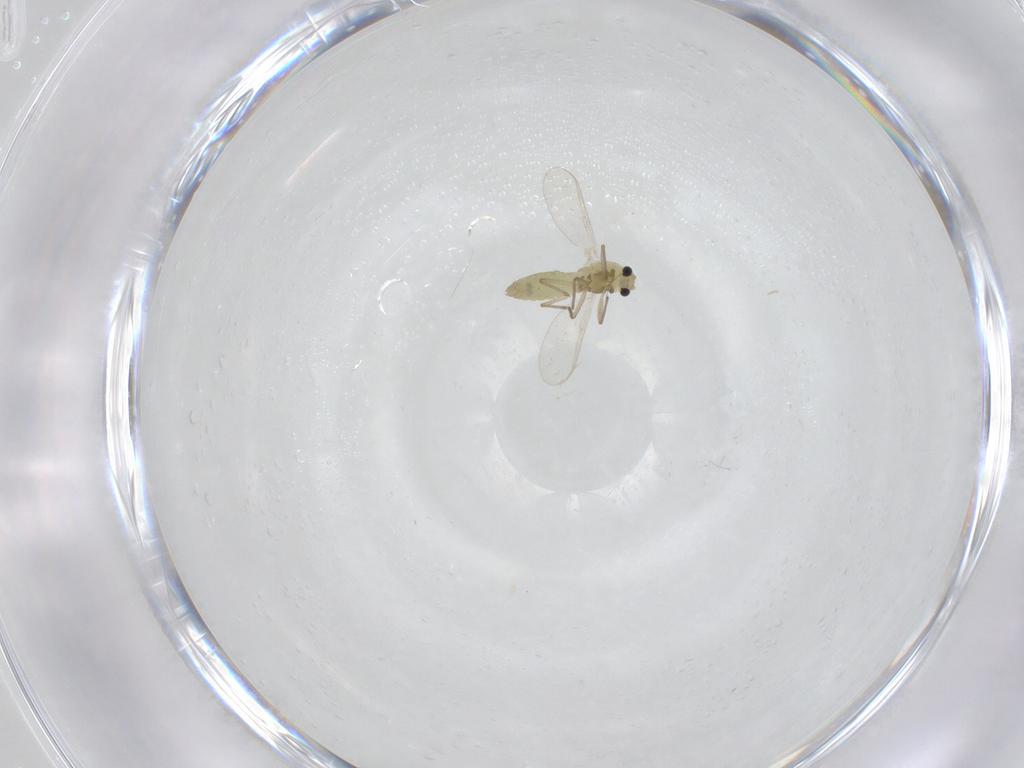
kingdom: Animalia
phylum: Arthropoda
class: Insecta
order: Diptera
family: Chironomidae
